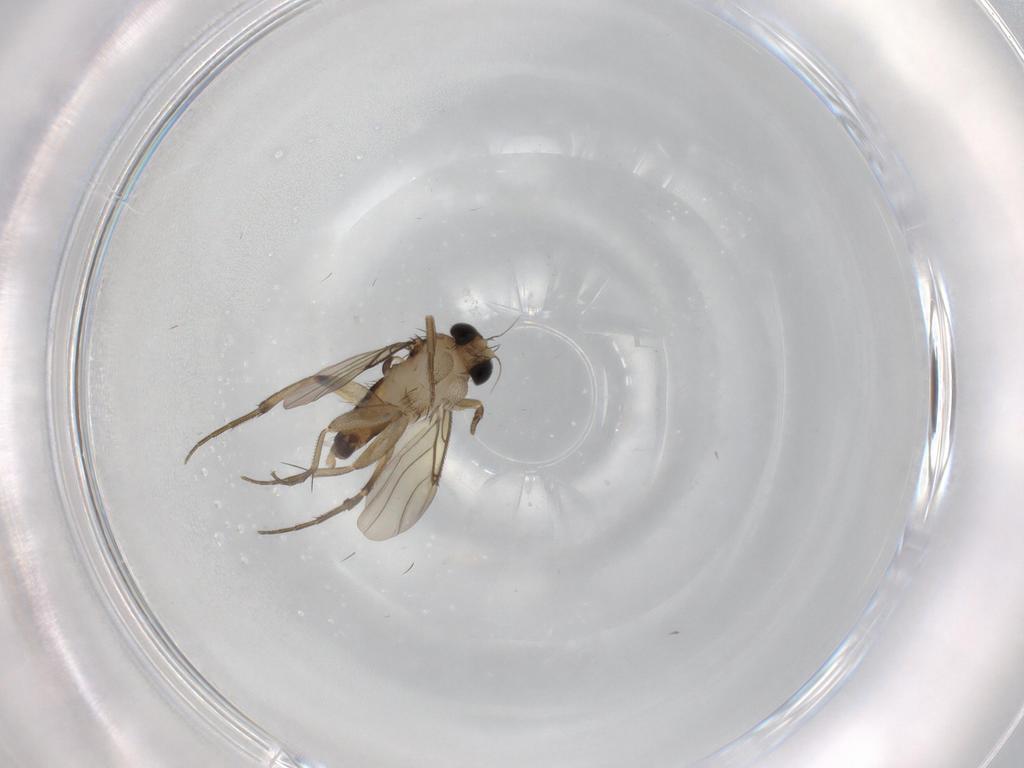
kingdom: Animalia
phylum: Arthropoda
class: Insecta
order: Diptera
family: Phoridae
